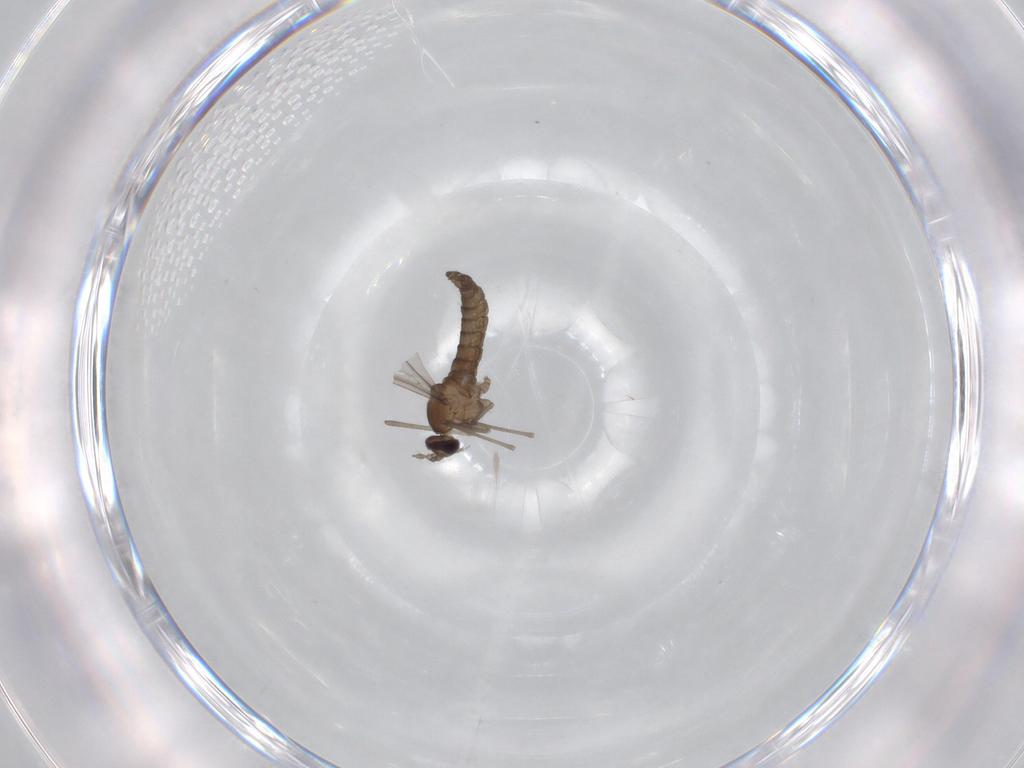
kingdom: Animalia
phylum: Arthropoda
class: Insecta
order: Diptera
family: Cecidomyiidae
